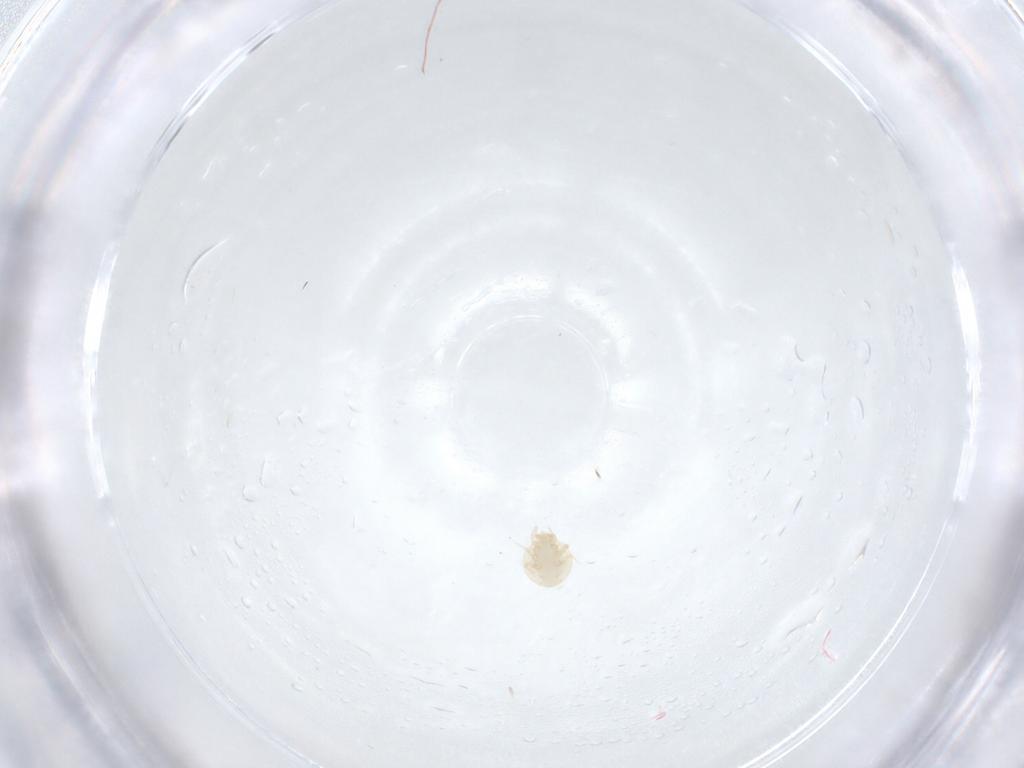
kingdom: Animalia
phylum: Arthropoda
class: Arachnida
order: Mesostigmata
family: Trematuridae
